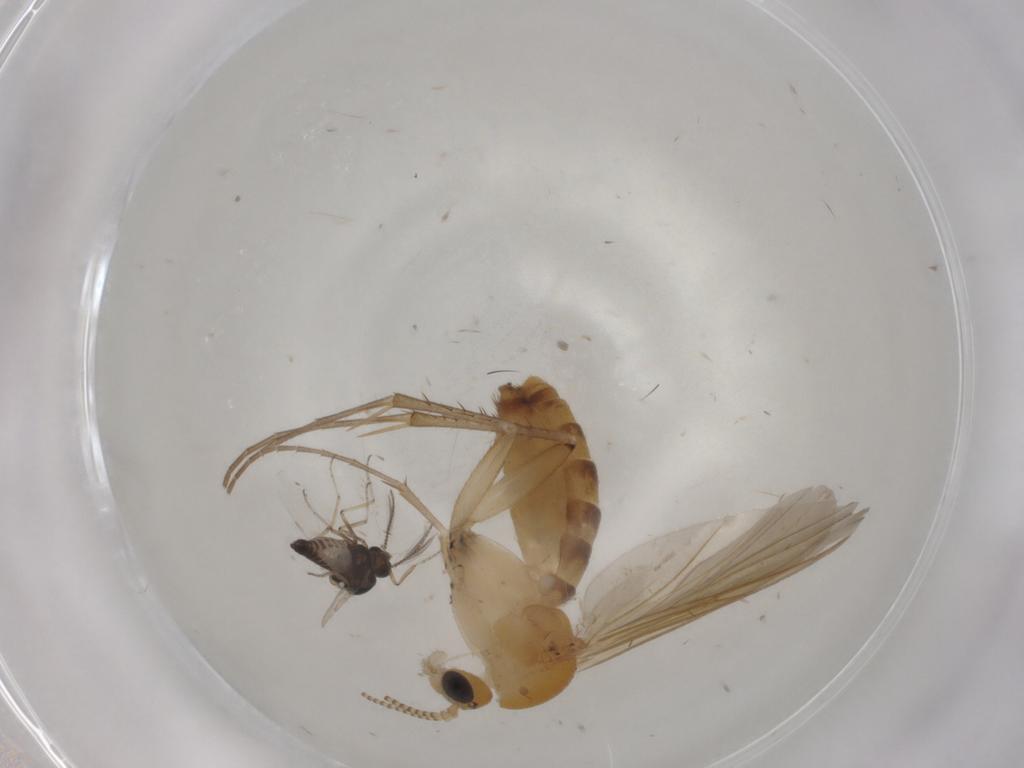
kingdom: Animalia
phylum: Arthropoda
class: Insecta
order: Diptera
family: Mycetophilidae
